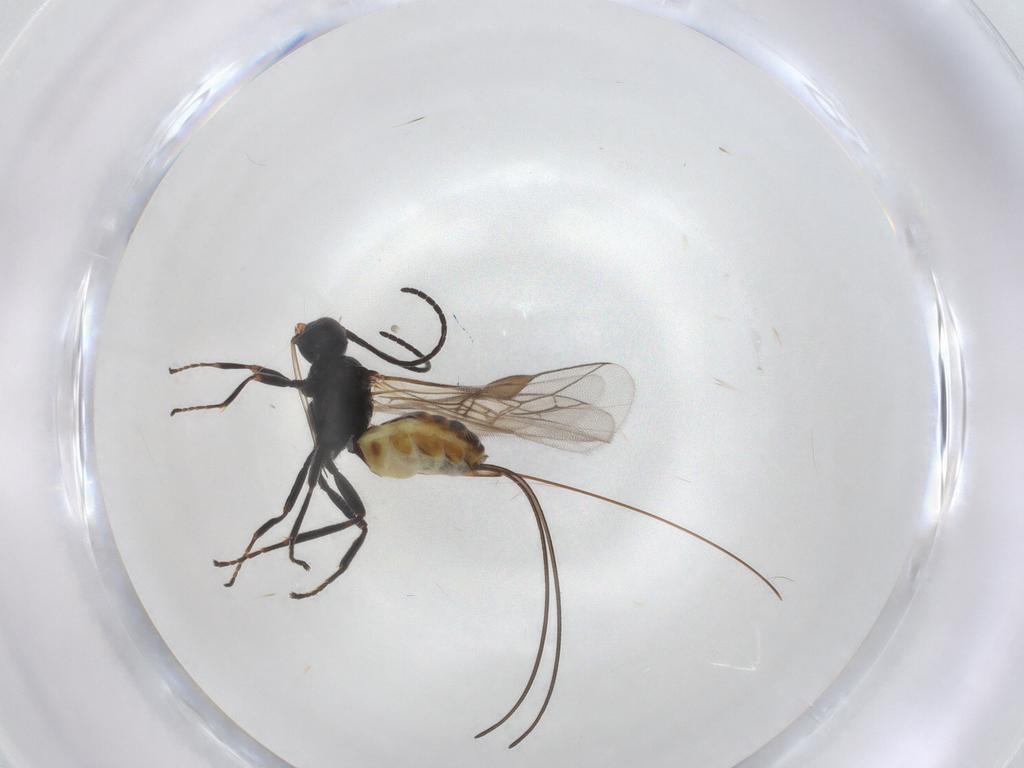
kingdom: Animalia
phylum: Arthropoda
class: Insecta
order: Hymenoptera
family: Braconidae
